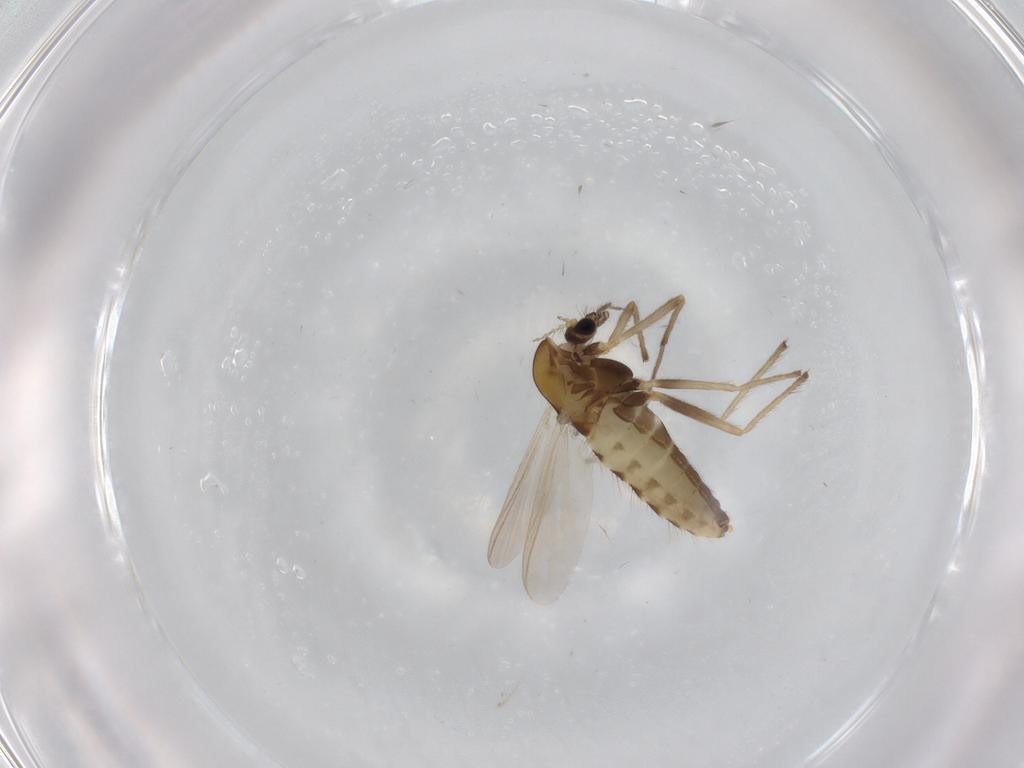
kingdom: Animalia
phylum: Arthropoda
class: Insecta
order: Diptera
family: Chironomidae
